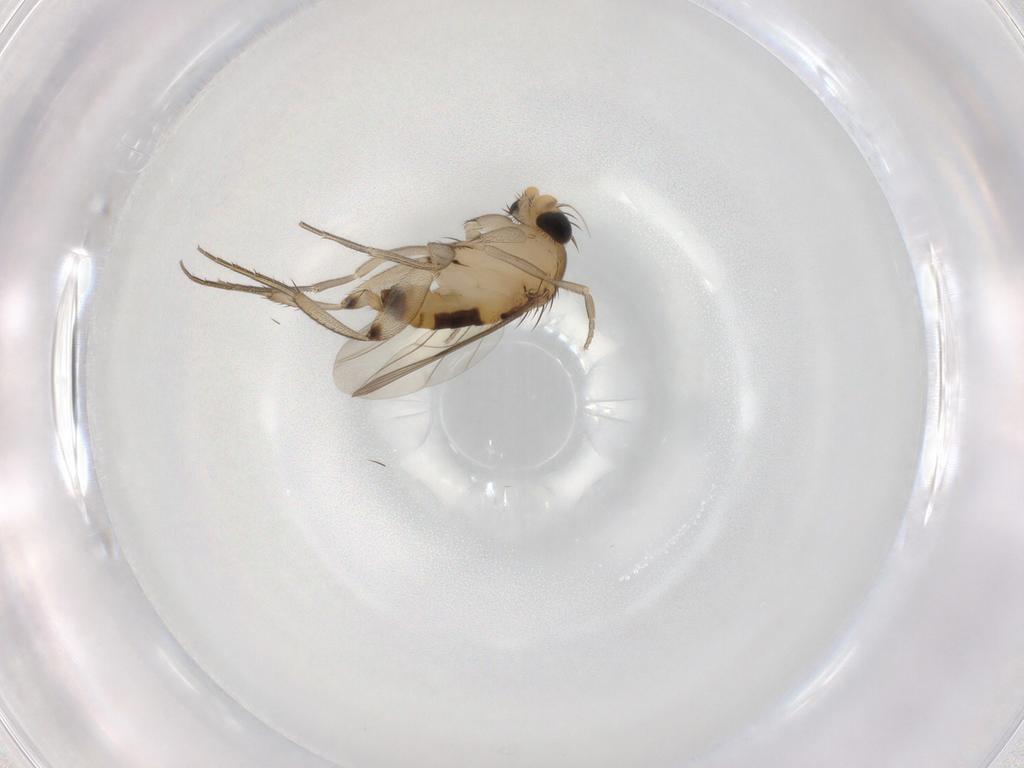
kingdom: Animalia
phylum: Arthropoda
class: Insecta
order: Diptera
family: Phoridae
